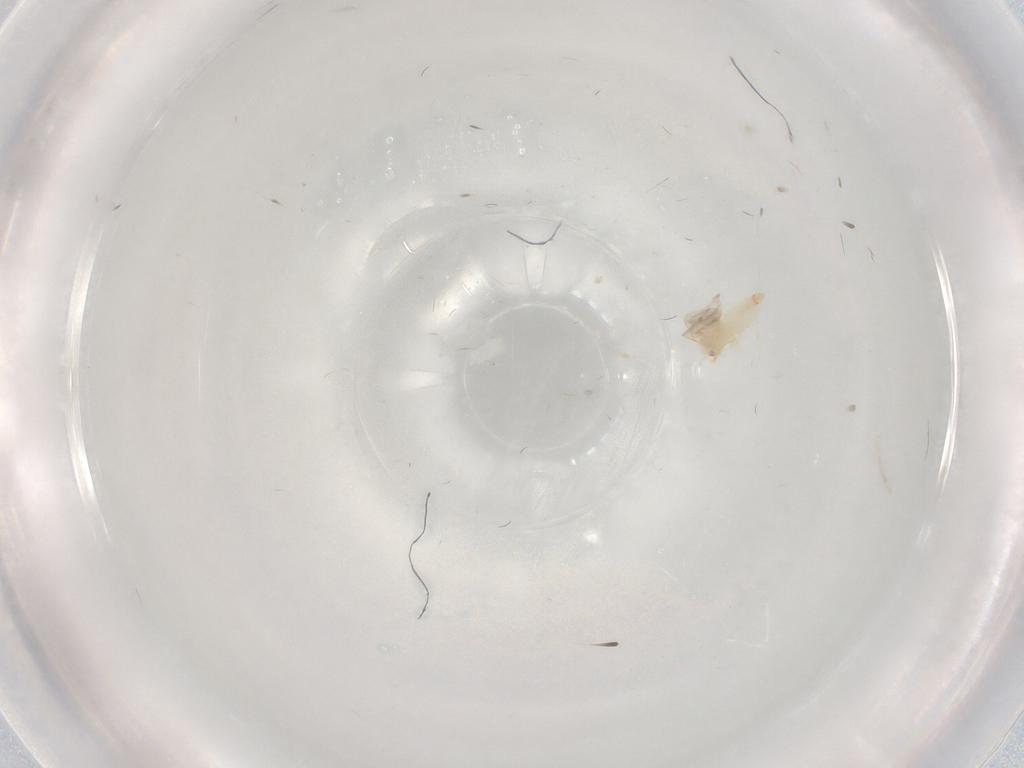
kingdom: Animalia
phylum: Arthropoda
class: Insecta
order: Hemiptera
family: Aleyrodidae
